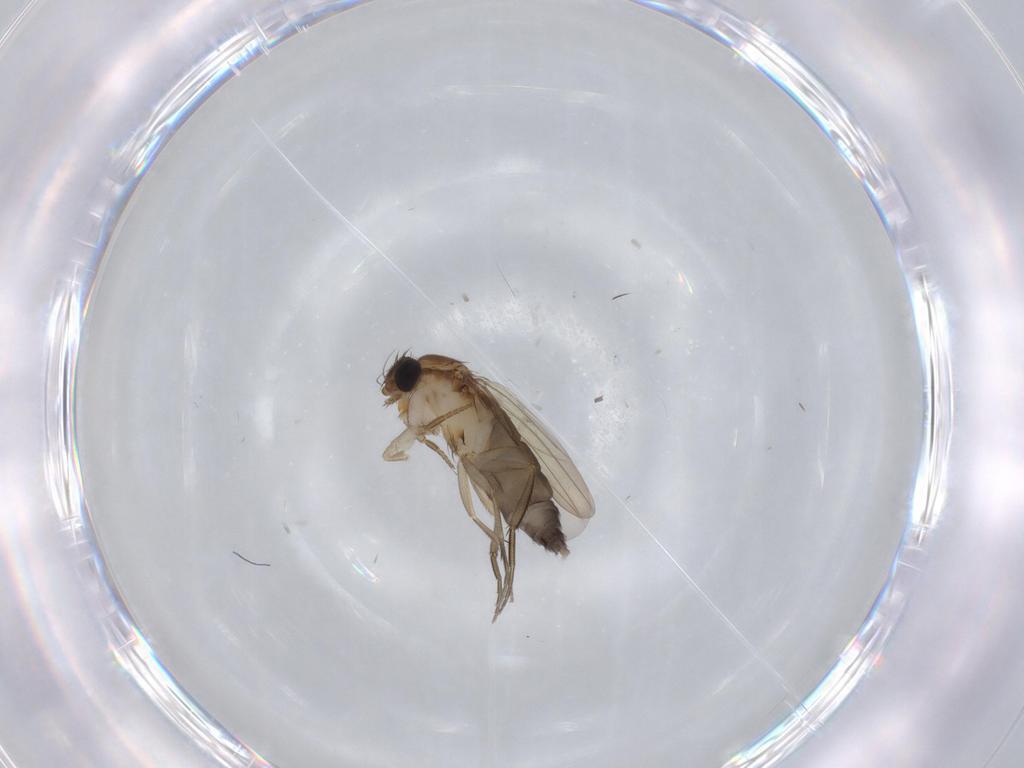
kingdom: Animalia
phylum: Arthropoda
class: Insecta
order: Diptera
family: Phoridae
